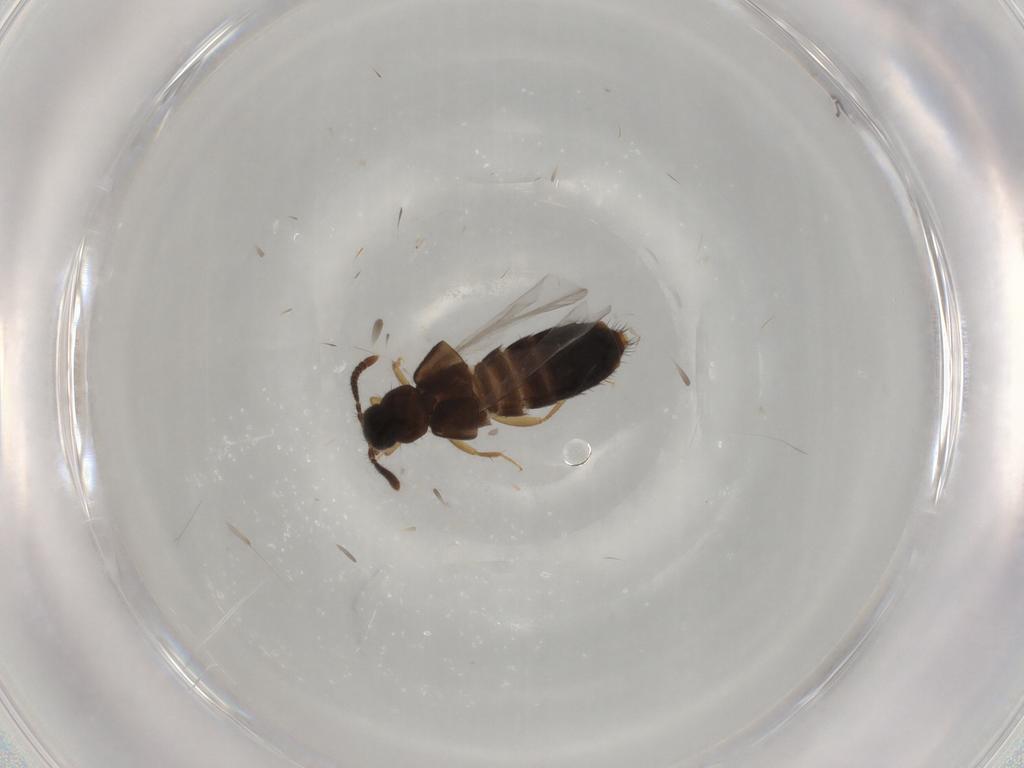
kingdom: Animalia
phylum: Arthropoda
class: Insecta
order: Coleoptera
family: Staphylinidae
